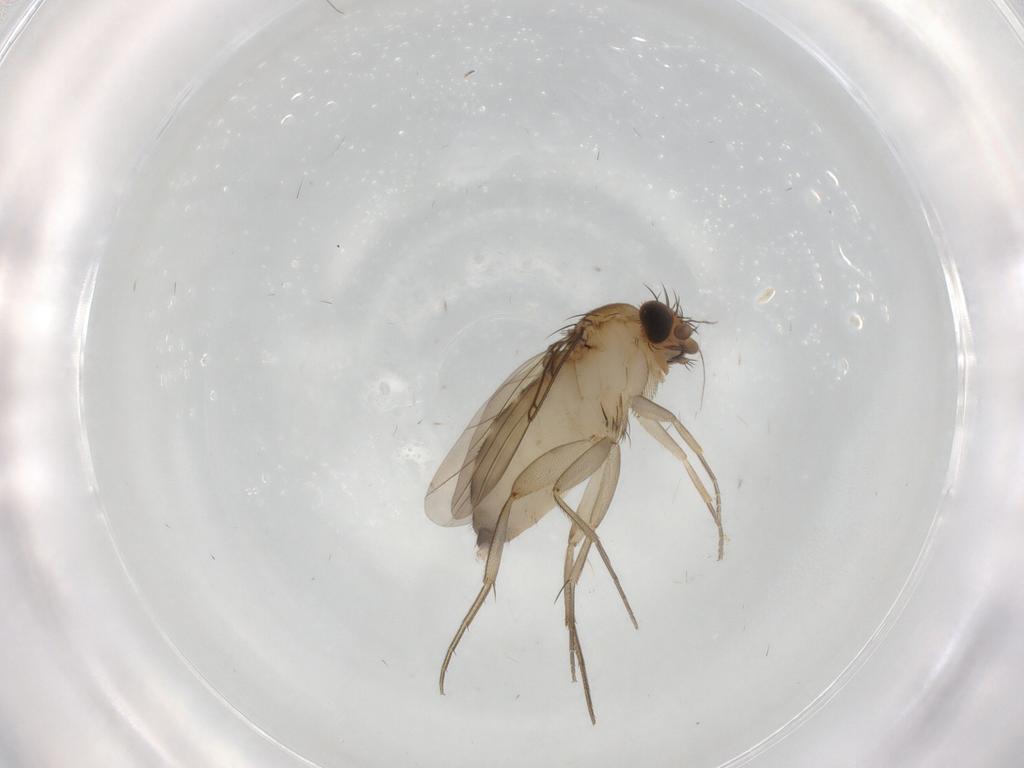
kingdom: Animalia
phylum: Arthropoda
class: Insecta
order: Diptera
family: Phoridae
